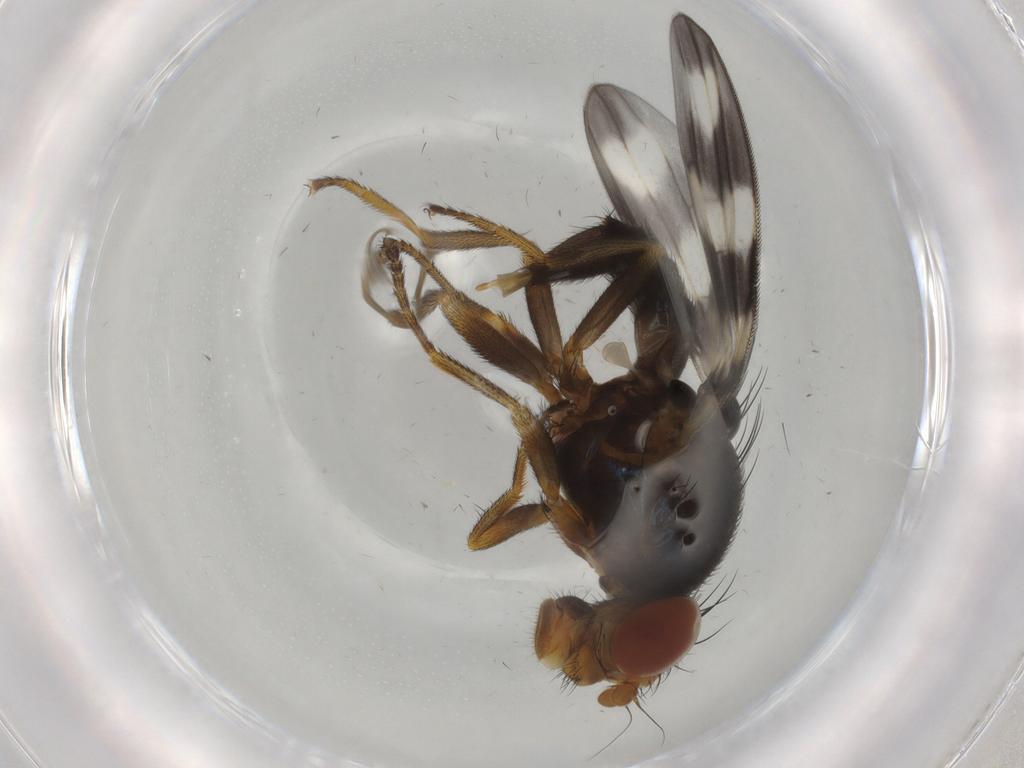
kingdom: Animalia
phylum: Arthropoda
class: Insecta
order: Diptera
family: Ulidiidae
